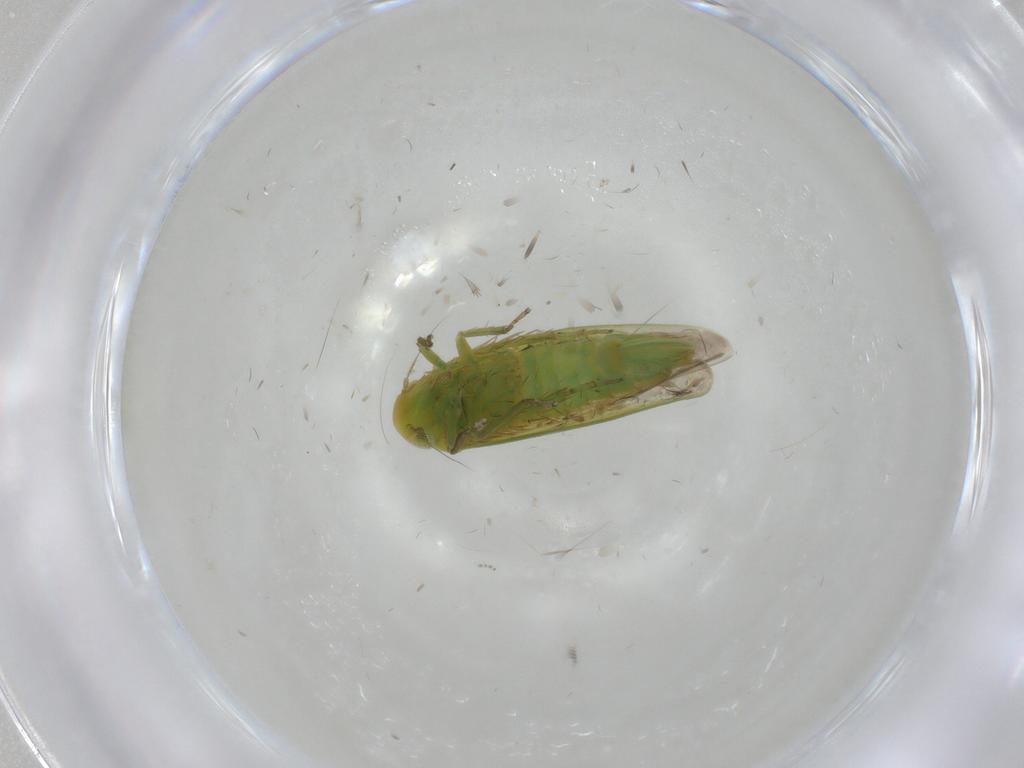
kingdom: Animalia
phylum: Arthropoda
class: Insecta
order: Hemiptera
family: Cicadellidae
